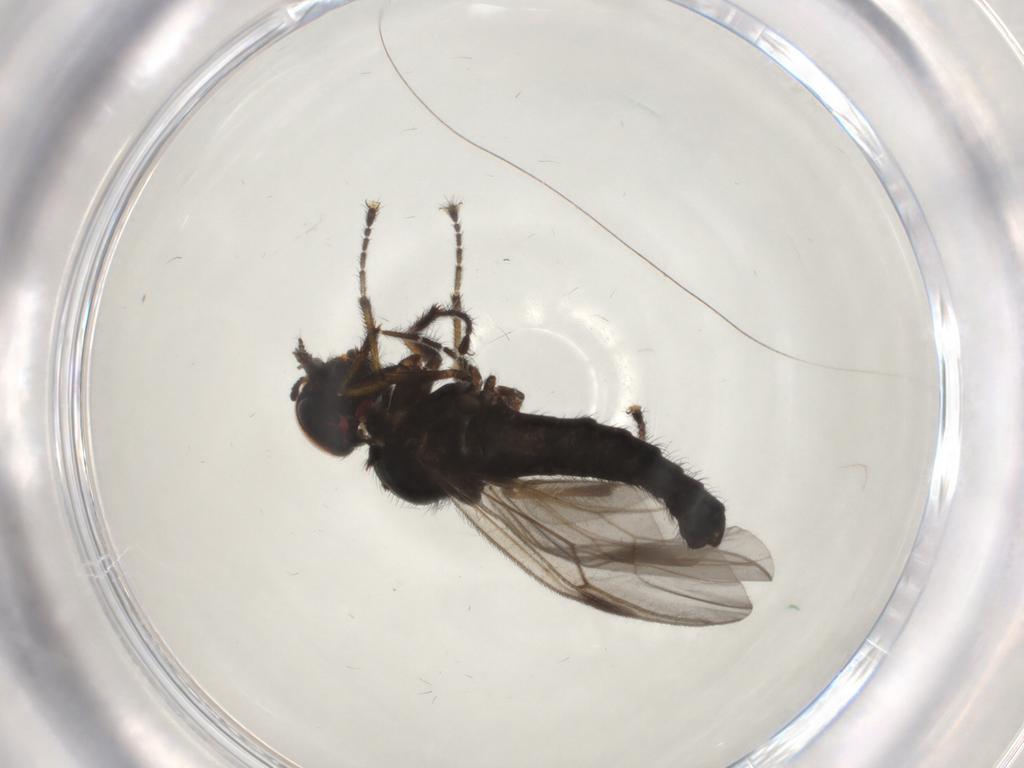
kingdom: Animalia
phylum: Arthropoda
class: Insecta
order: Diptera
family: Bibionidae
